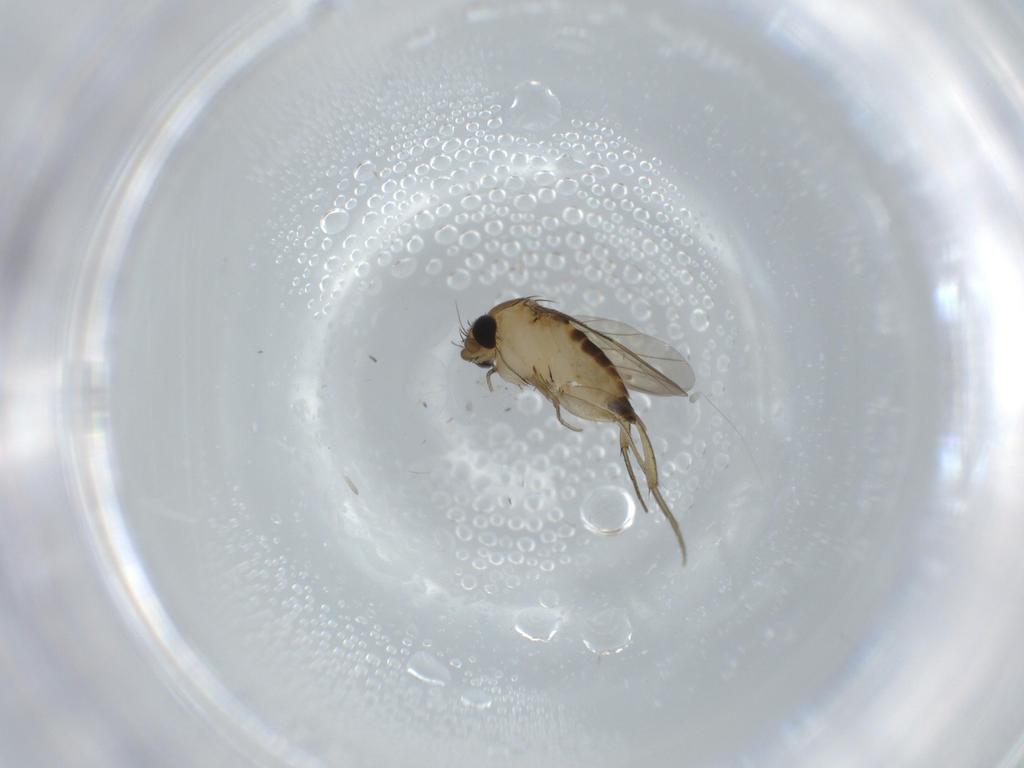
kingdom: Animalia
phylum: Arthropoda
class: Insecta
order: Diptera
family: Phoridae
